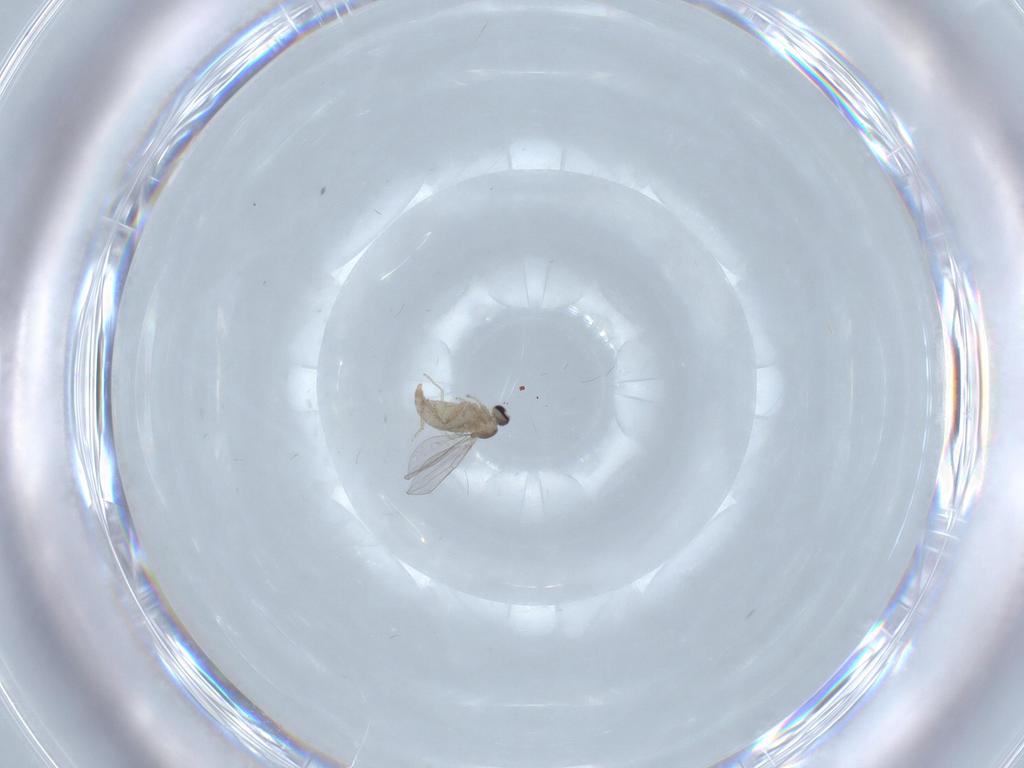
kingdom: Animalia
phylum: Arthropoda
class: Insecta
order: Diptera
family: Cecidomyiidae
